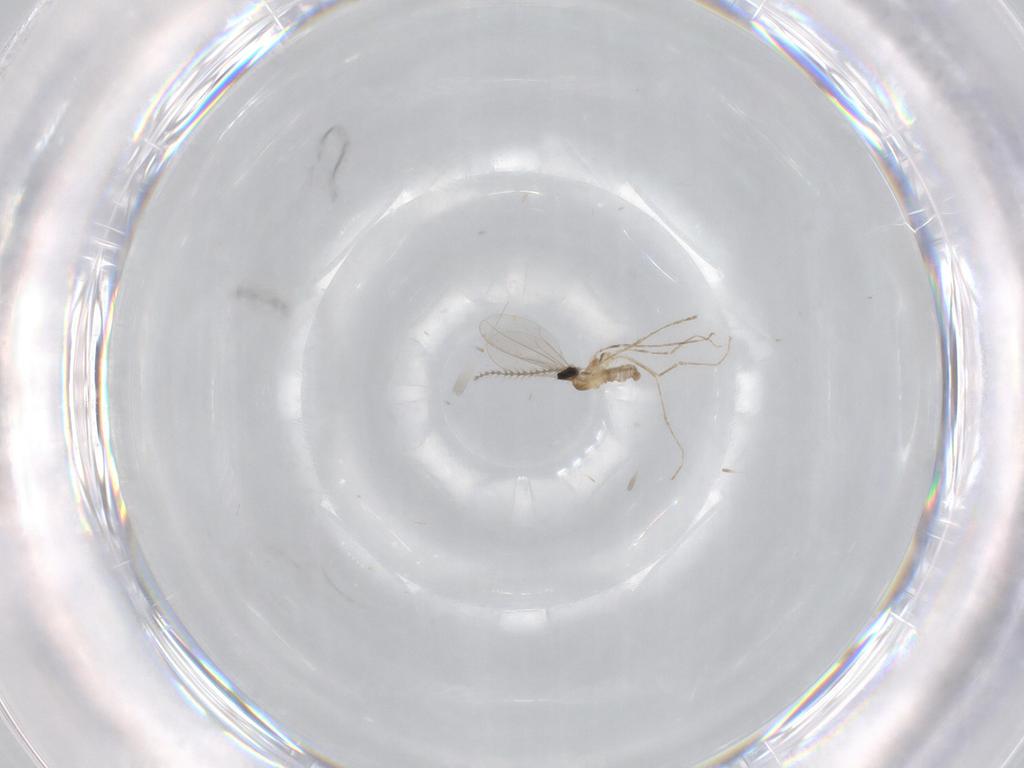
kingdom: Animalia
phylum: Arthropoda
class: Insecta
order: Diptera
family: Cecidomyiidae
